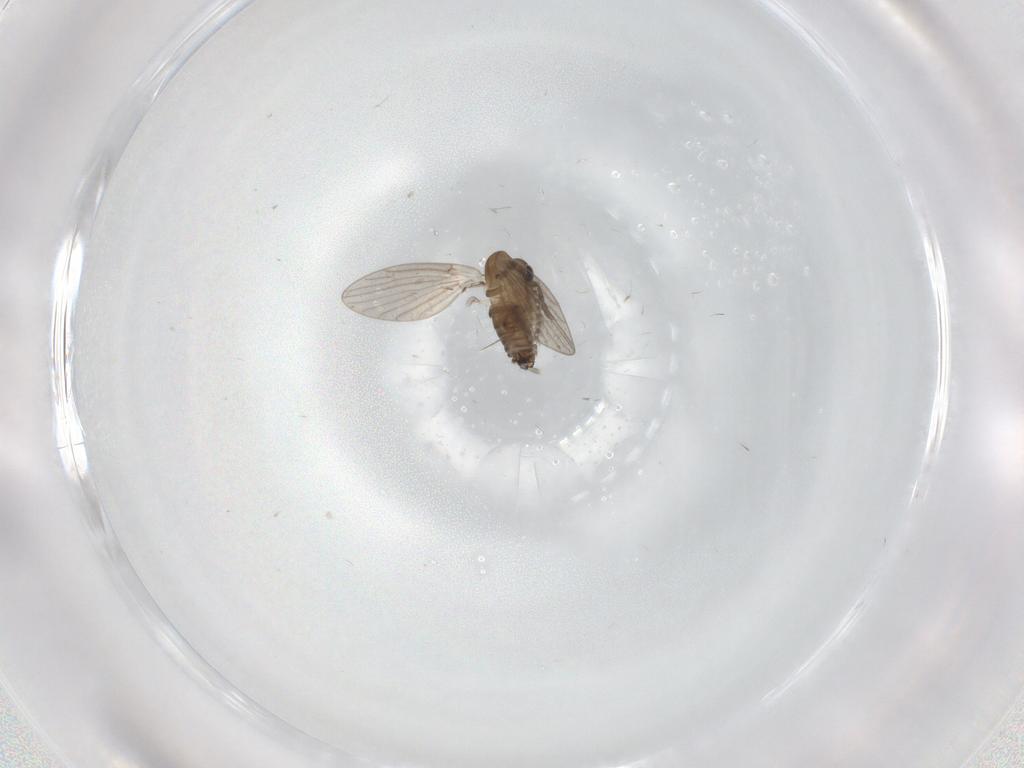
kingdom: Animalia
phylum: Arthropoda
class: Insecta
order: Diptera
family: Psychodidae
